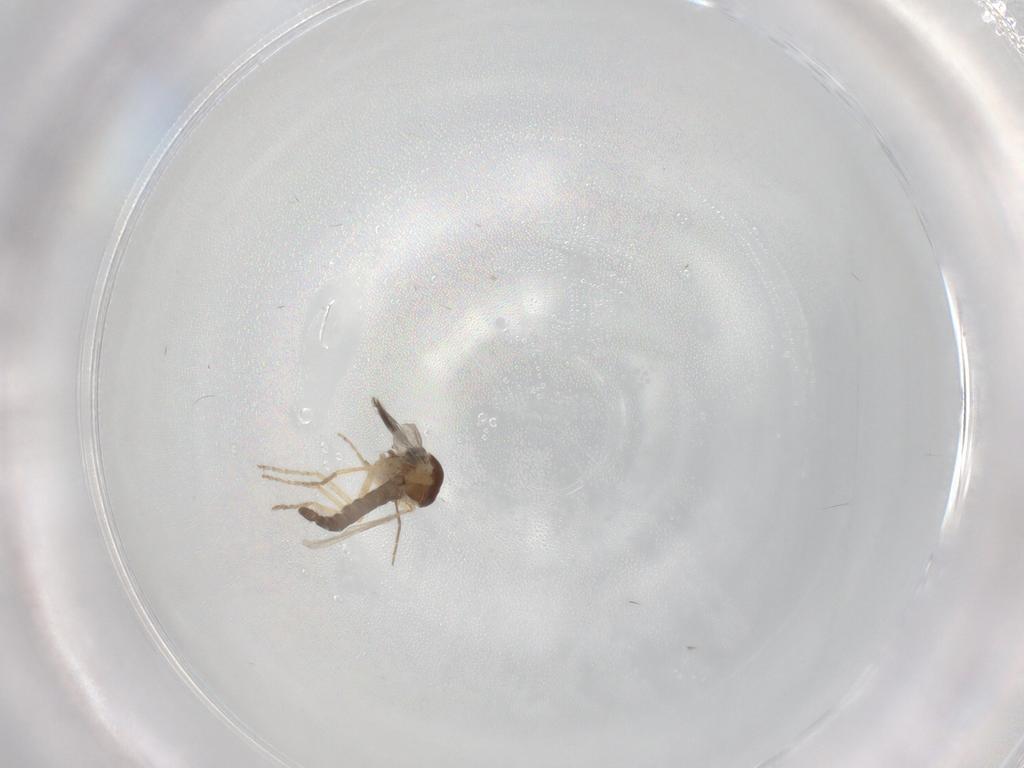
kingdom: Animalia
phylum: Arthropoda
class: Insecta
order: Diptera
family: Ceratopogonidae
